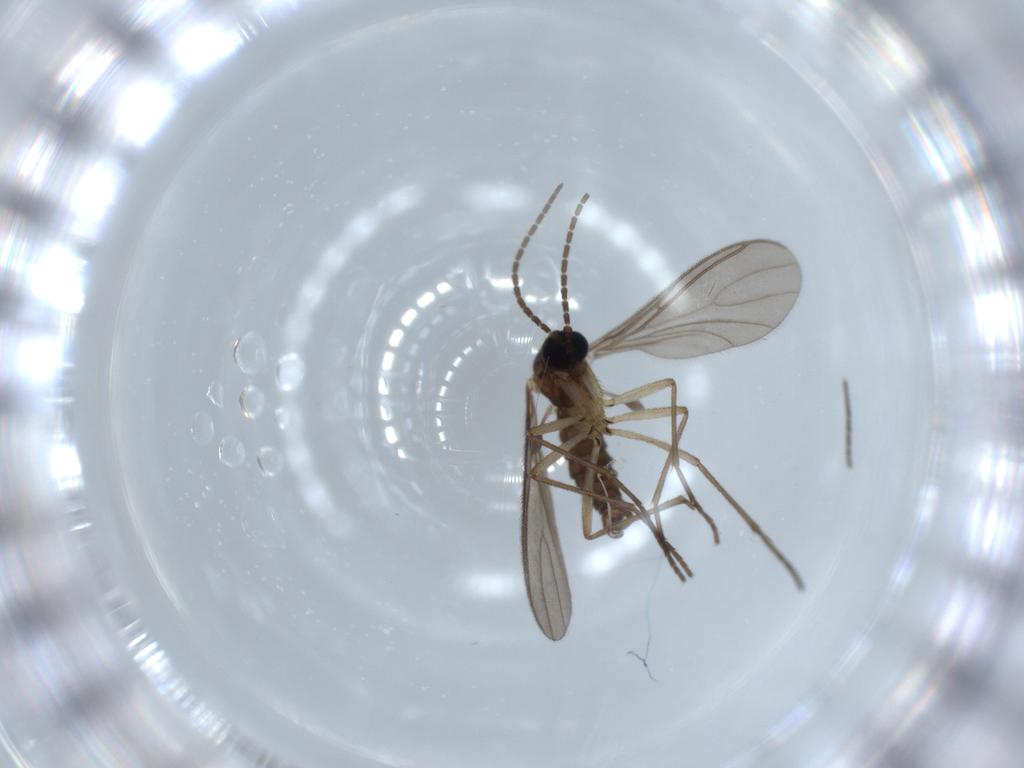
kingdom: Animalia
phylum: Arthropoda
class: Insecta
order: Diptera
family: Sciaridae
